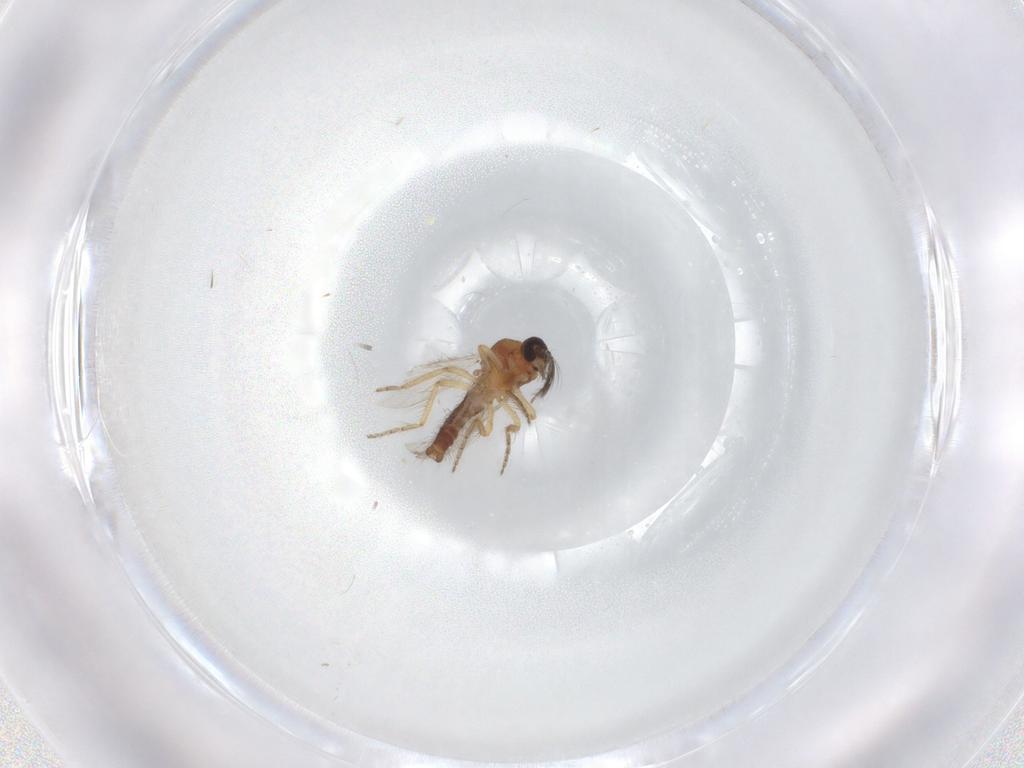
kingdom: Animalia
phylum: Arthropoda
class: Insecta
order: Diptera
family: Ceratopogonidae
